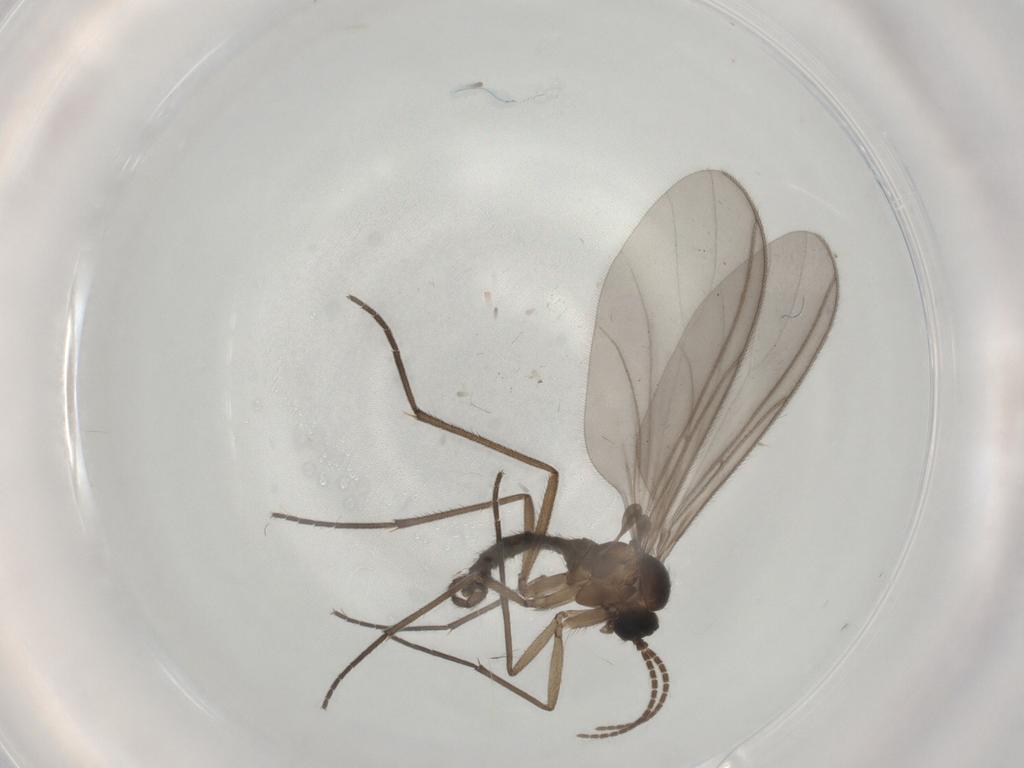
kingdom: Animalia
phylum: Arthropoda
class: Insecta
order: Diptera
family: Sciaridae
